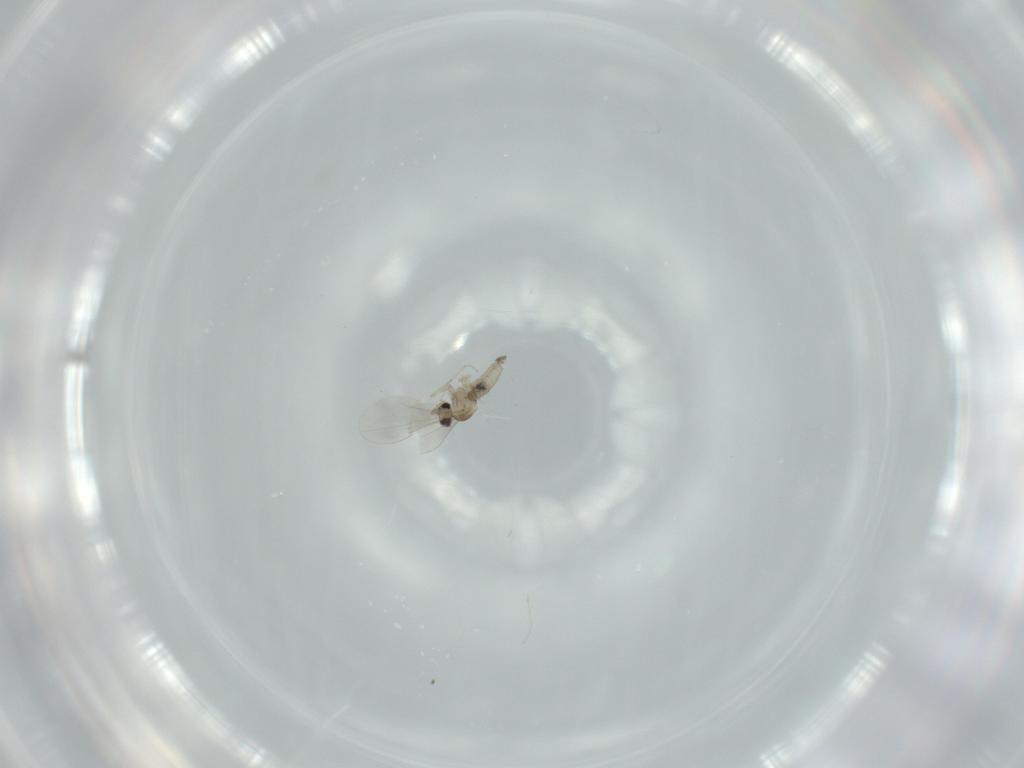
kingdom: Animalia
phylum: Arthropoda
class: Insecta
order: Diptera
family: Cecidomyiidae
